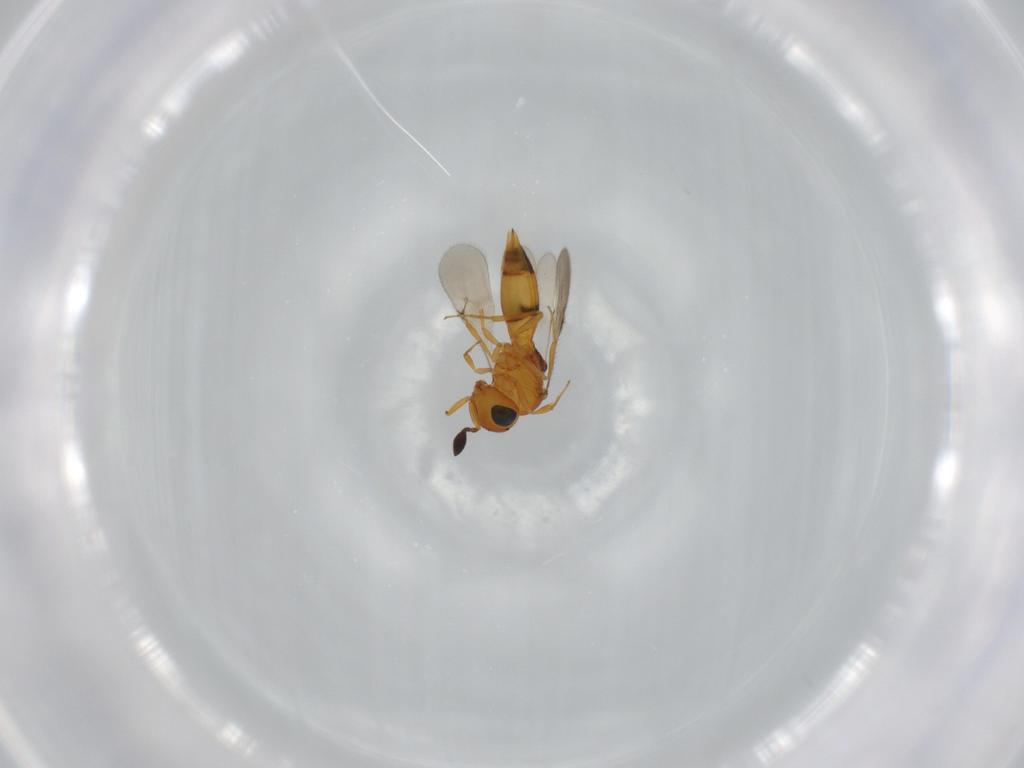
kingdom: Animalia
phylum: Arthropoda
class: Insecta
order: Hymenoptera
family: Scelionidae
